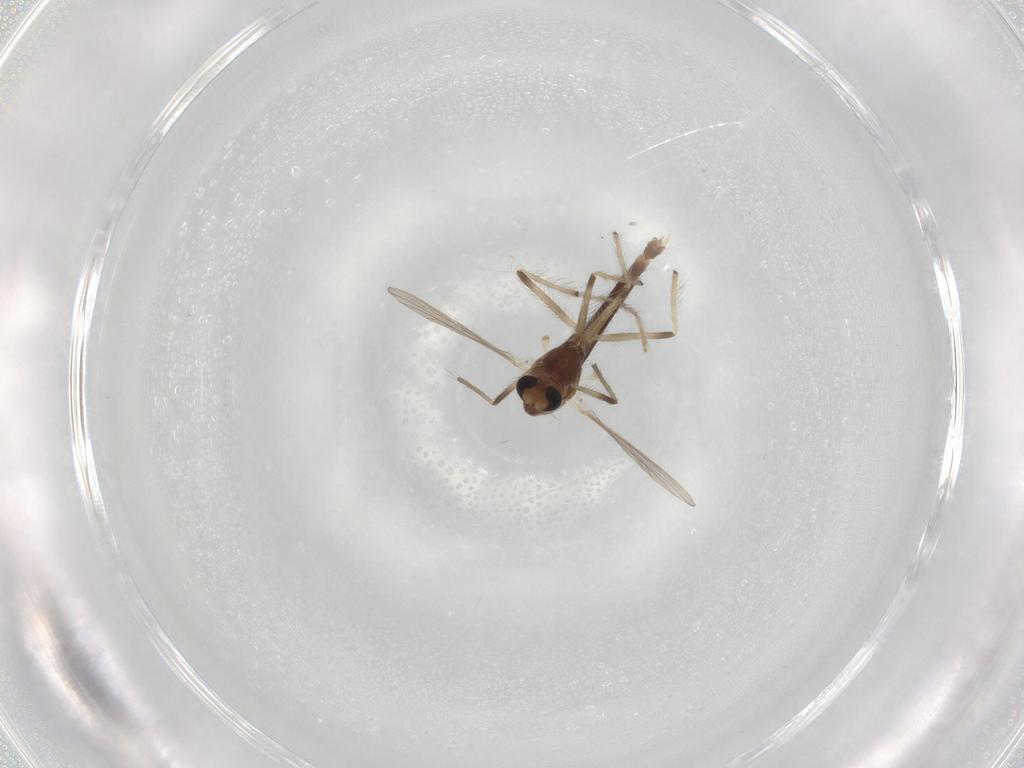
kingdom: Animalia
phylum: Arthropoda
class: Insecta
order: Diptera
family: Chironomidae
